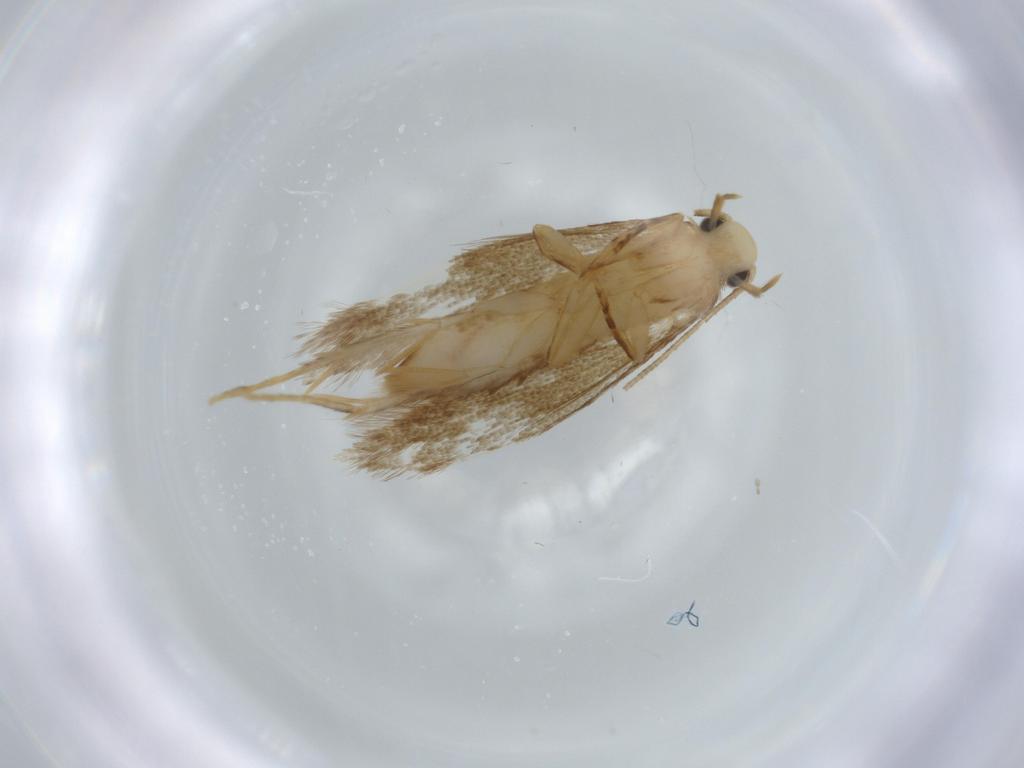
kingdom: Animalia
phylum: Arthropoda
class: Insecta
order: Lepidoptera
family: Tineidae
